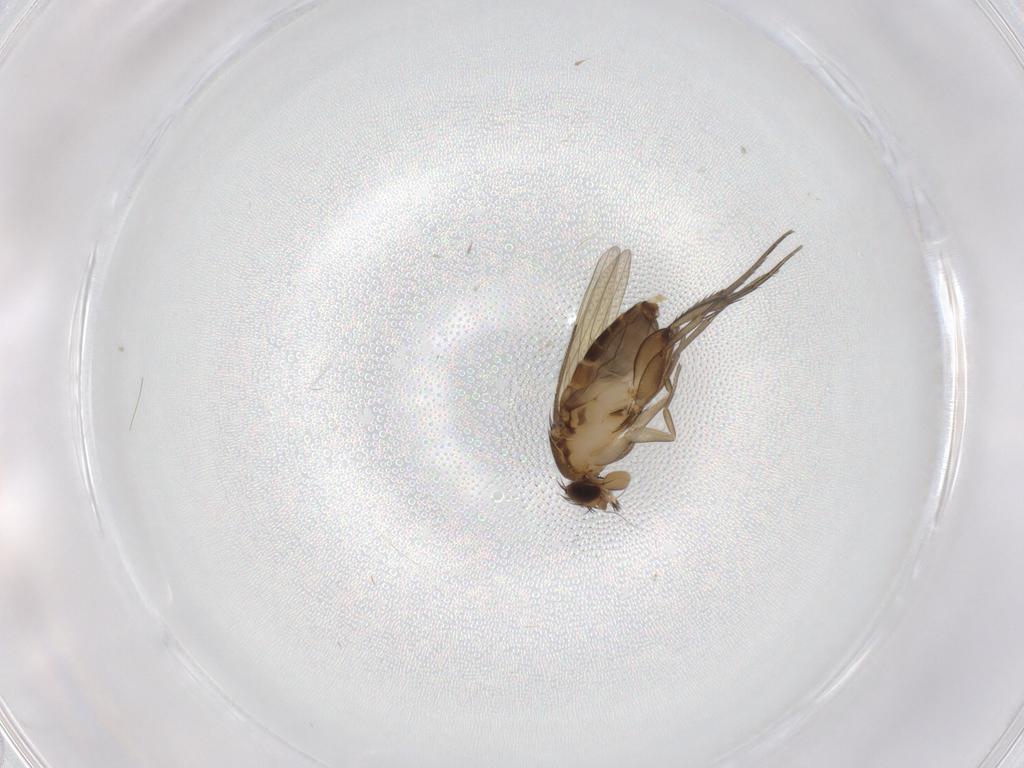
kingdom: Animalia
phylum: Arthropoda
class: Insecta
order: Diptera
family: Phoridae
